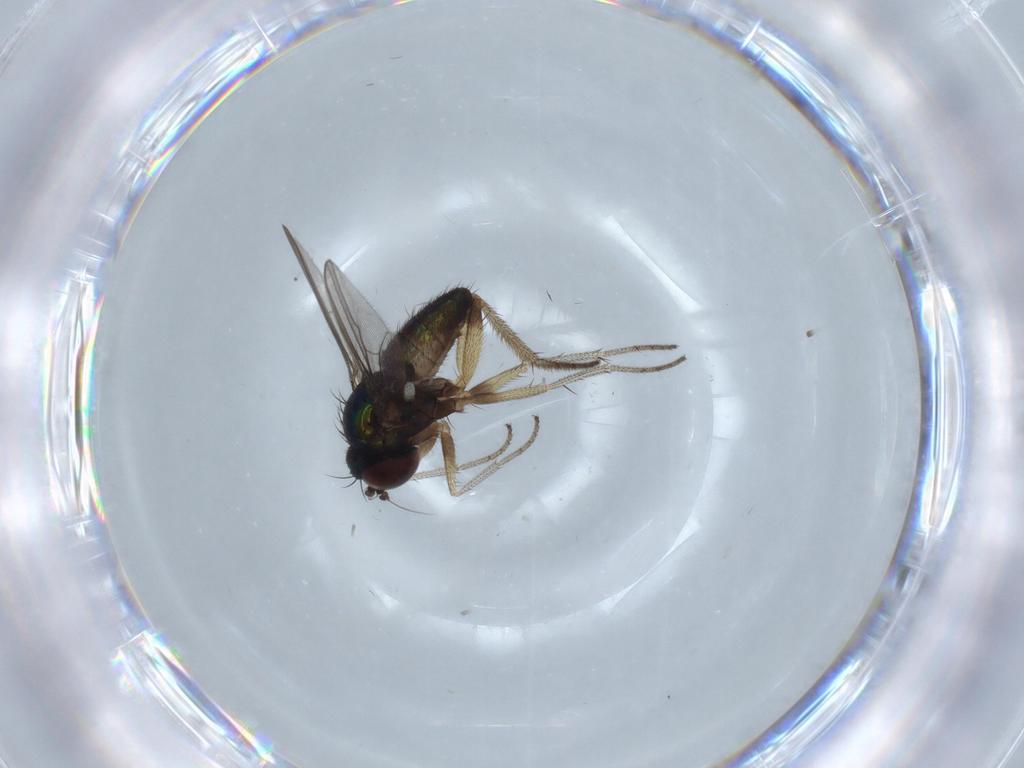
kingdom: Animalia
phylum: Arthropoda
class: Insecta
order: Diptera
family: Dolichopodidae
